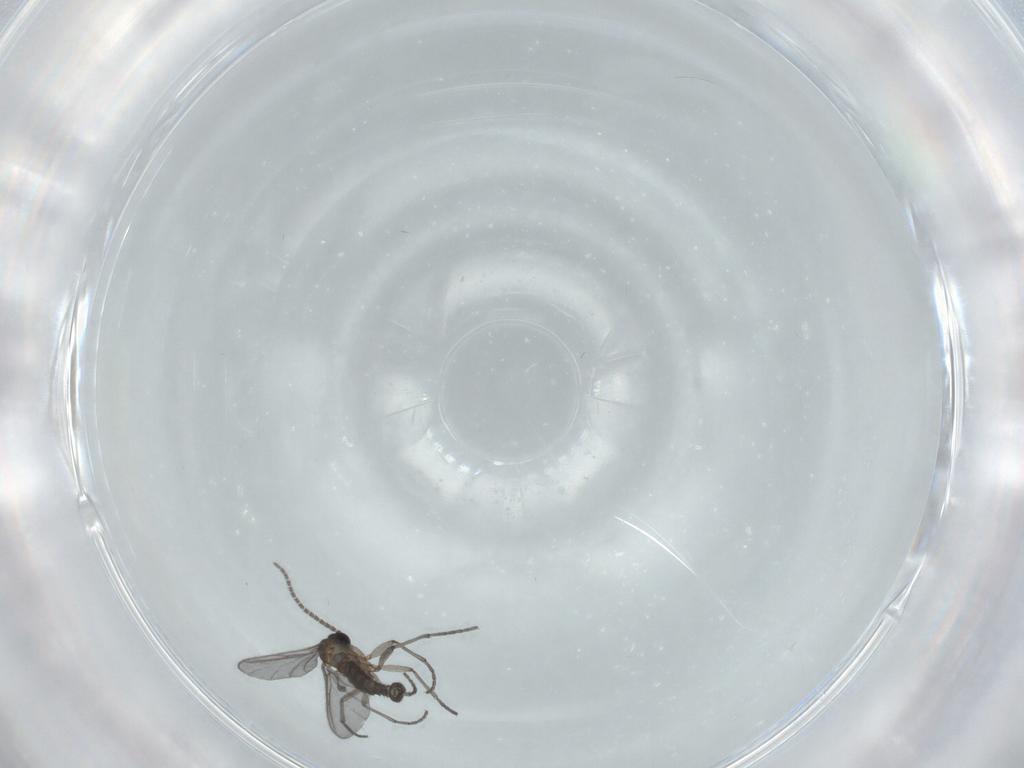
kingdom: Animalia
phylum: Arthropoda
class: Insecta
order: Diptera
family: Sciaridae
